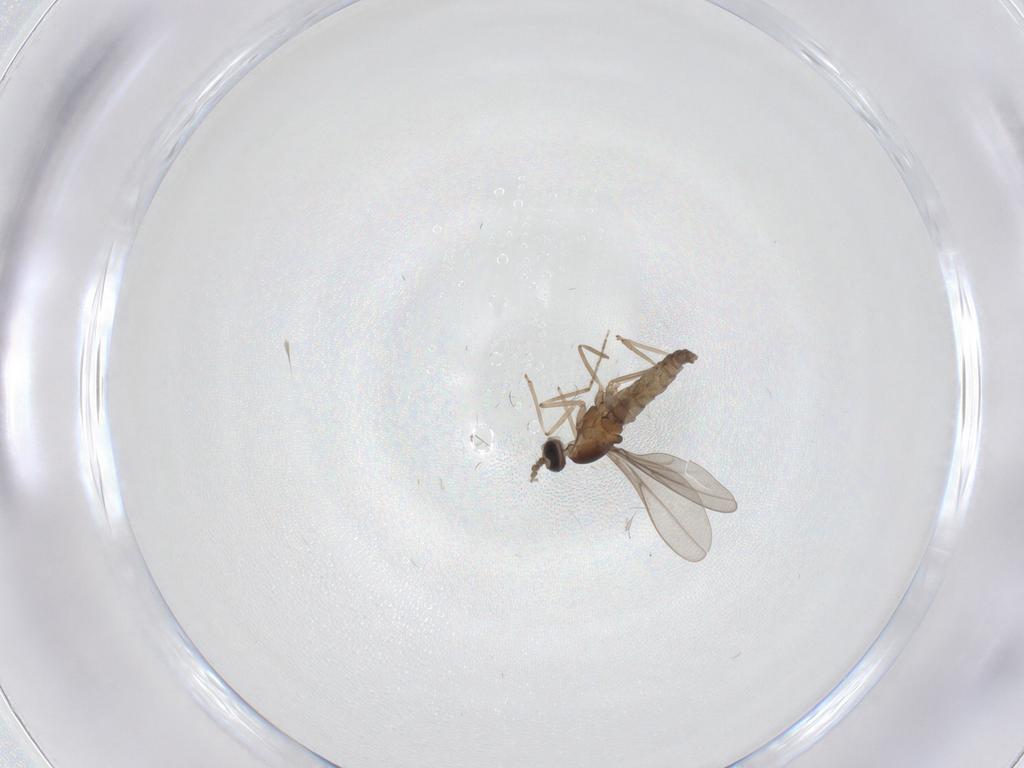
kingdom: Animalia
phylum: Arthropoda
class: Insecta
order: Diptera
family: Cecidomyiidae
